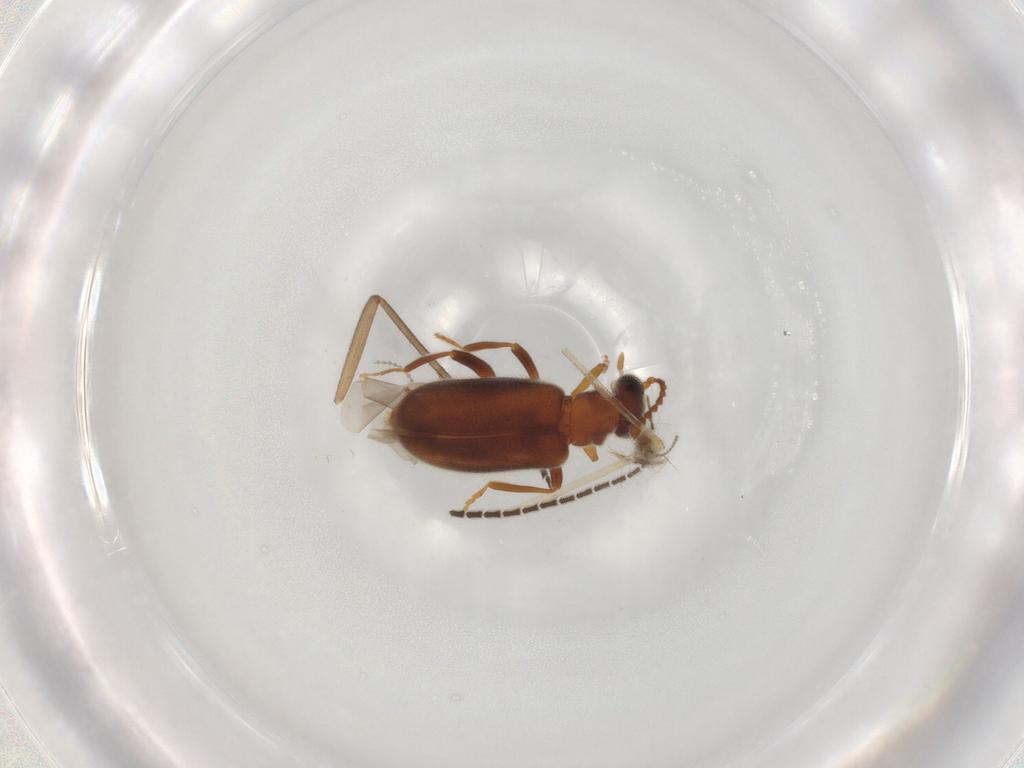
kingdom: Animalia
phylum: Arthropoda
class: Insecta
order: Coleoptera
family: Aderidae
